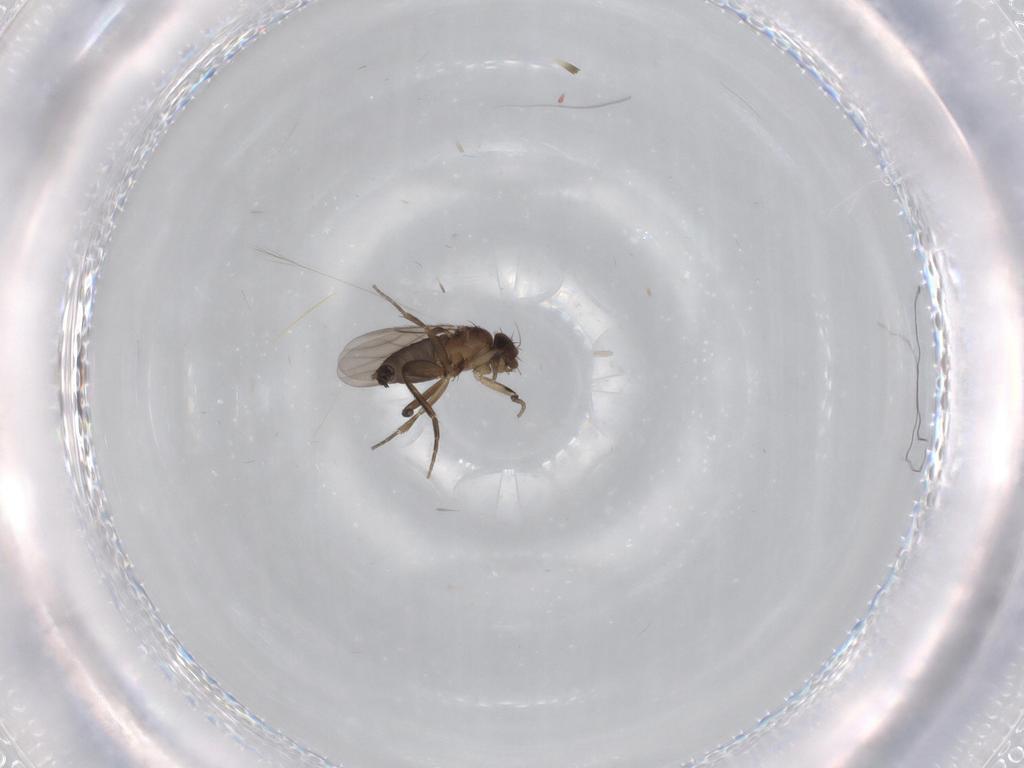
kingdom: Animalia
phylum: Arthropoda
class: Insecta
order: Diptera
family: Phoridae
